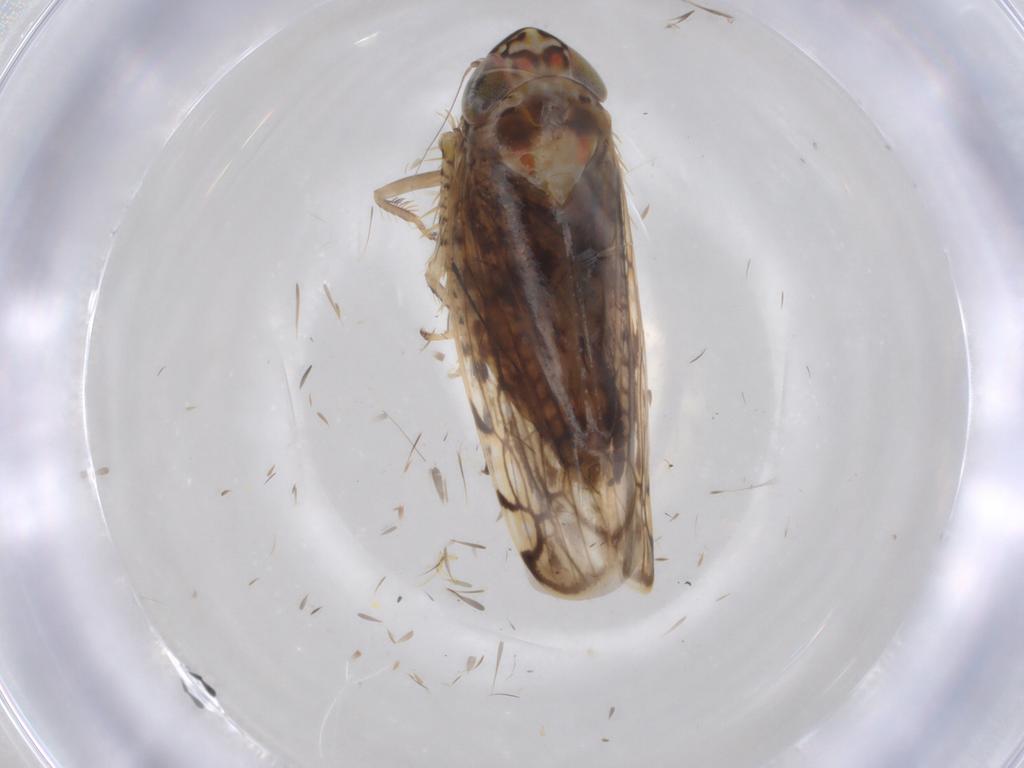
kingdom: Animalia
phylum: Arthropoda
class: Insecta
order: Hemiptera
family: Cicadellidae
